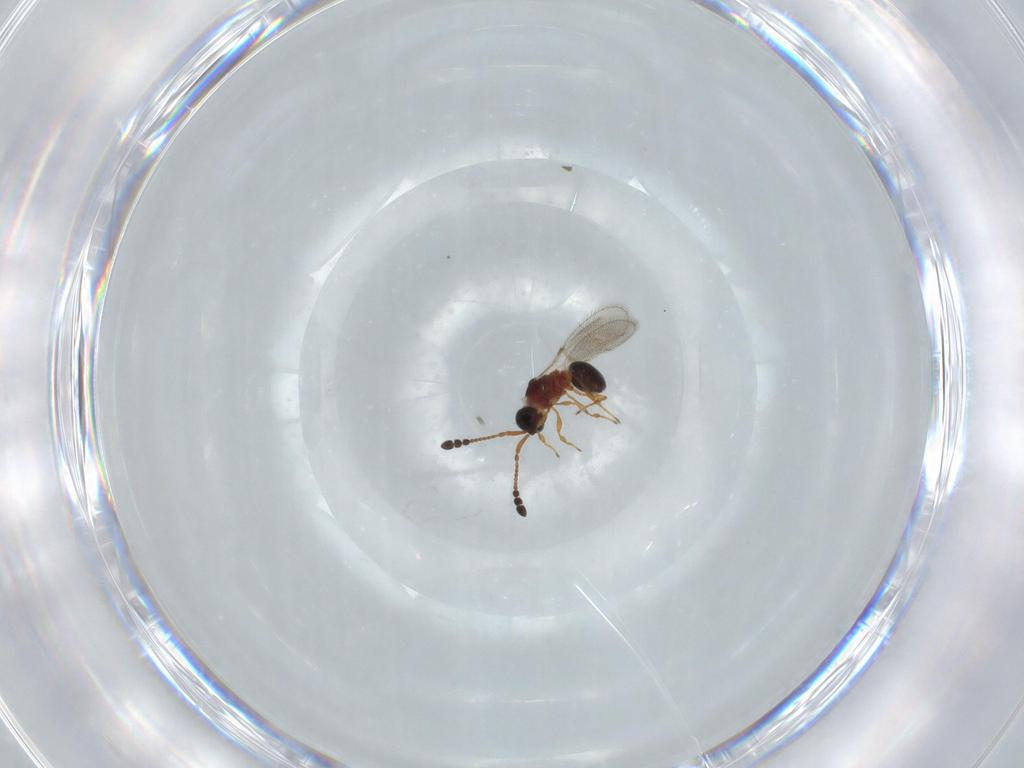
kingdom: Animalia
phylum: Arthropoda
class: Insecta
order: Hymenoptera
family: Diapriidae
